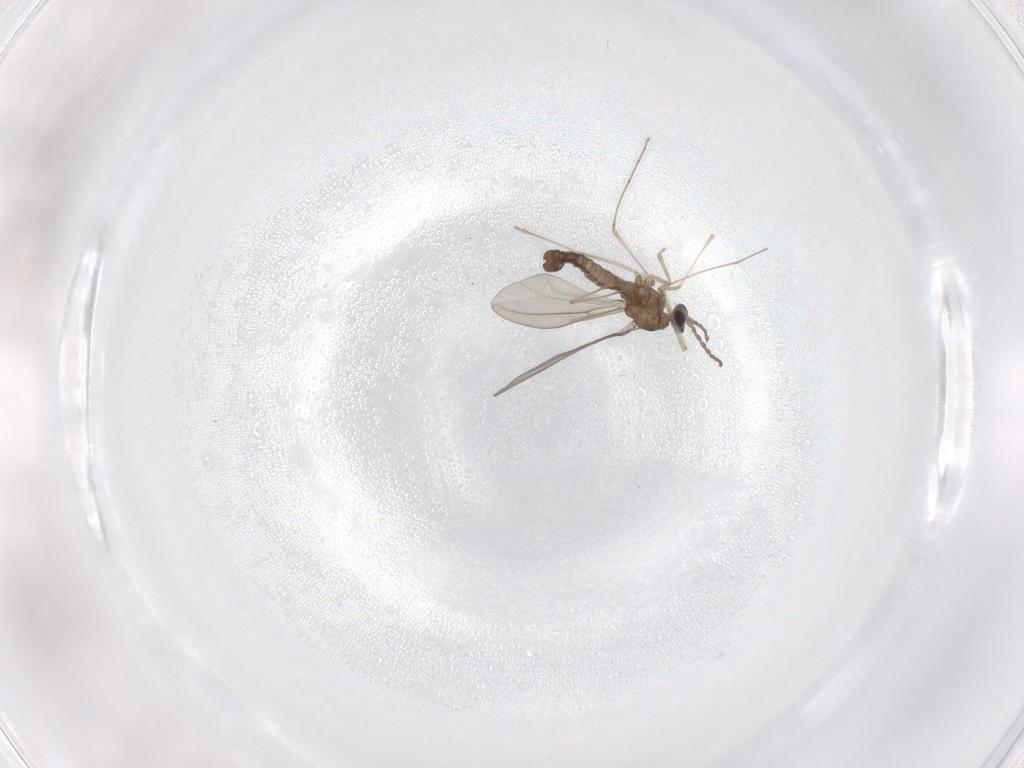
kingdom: Animalia
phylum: Arthropoda
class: Insecta
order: Diptera
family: Cecidomyiidae
